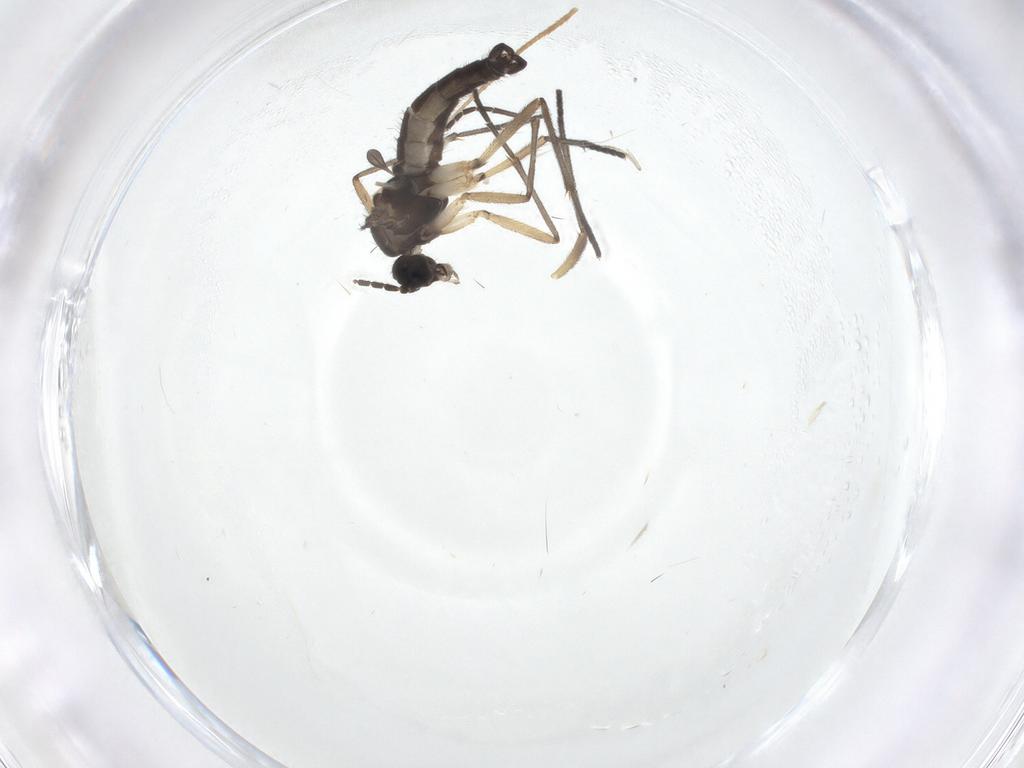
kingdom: Animalia
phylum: Arthropoda
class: Insecta
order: Diptera
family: Sciaridae
